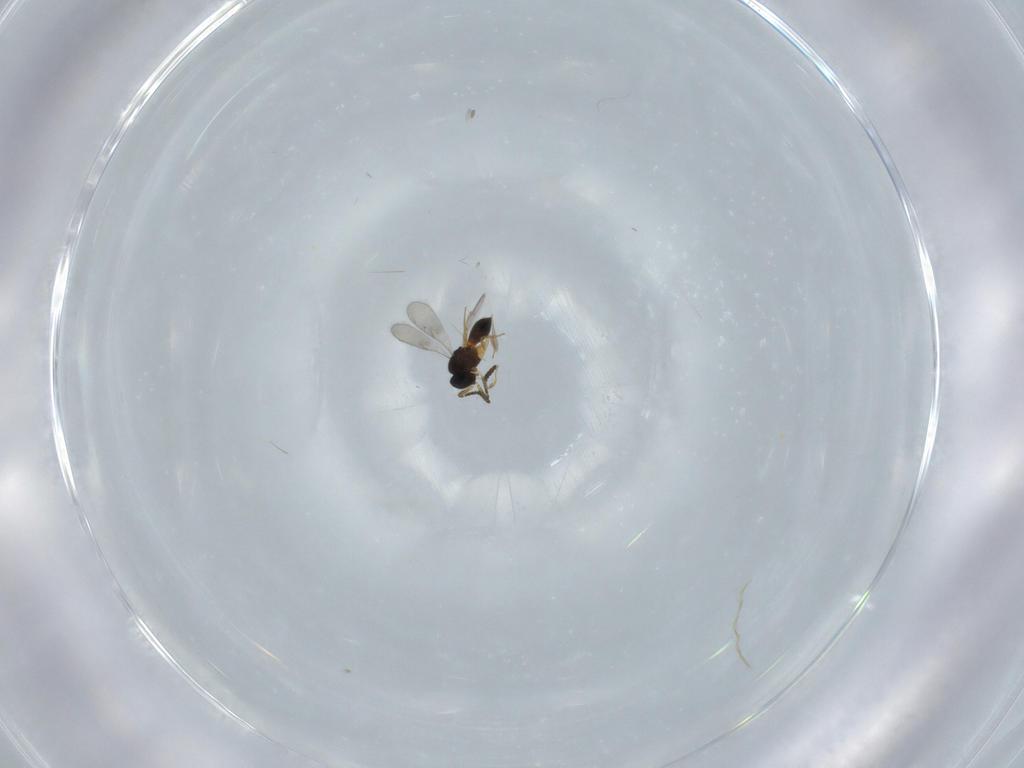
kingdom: Animalia
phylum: Arthropoda
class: Insecta
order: Hymenoptera
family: Scelionidae
